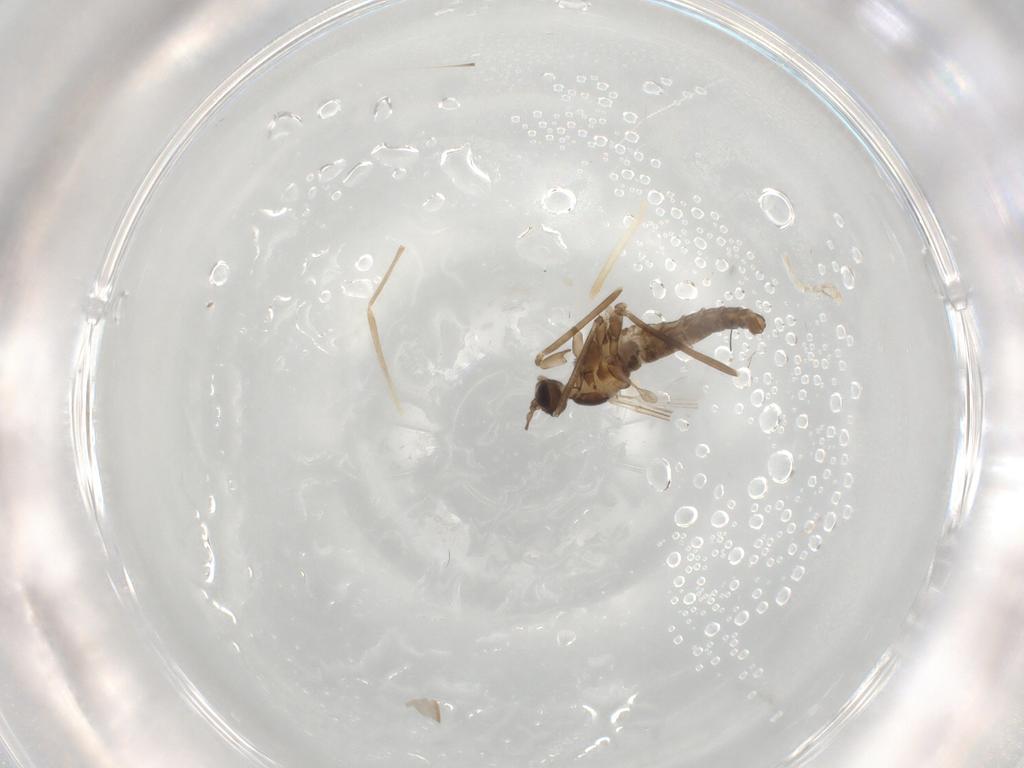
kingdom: Animalia
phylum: Arthropoda
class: Insecta
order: Diptera
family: Cecidomyiidae
